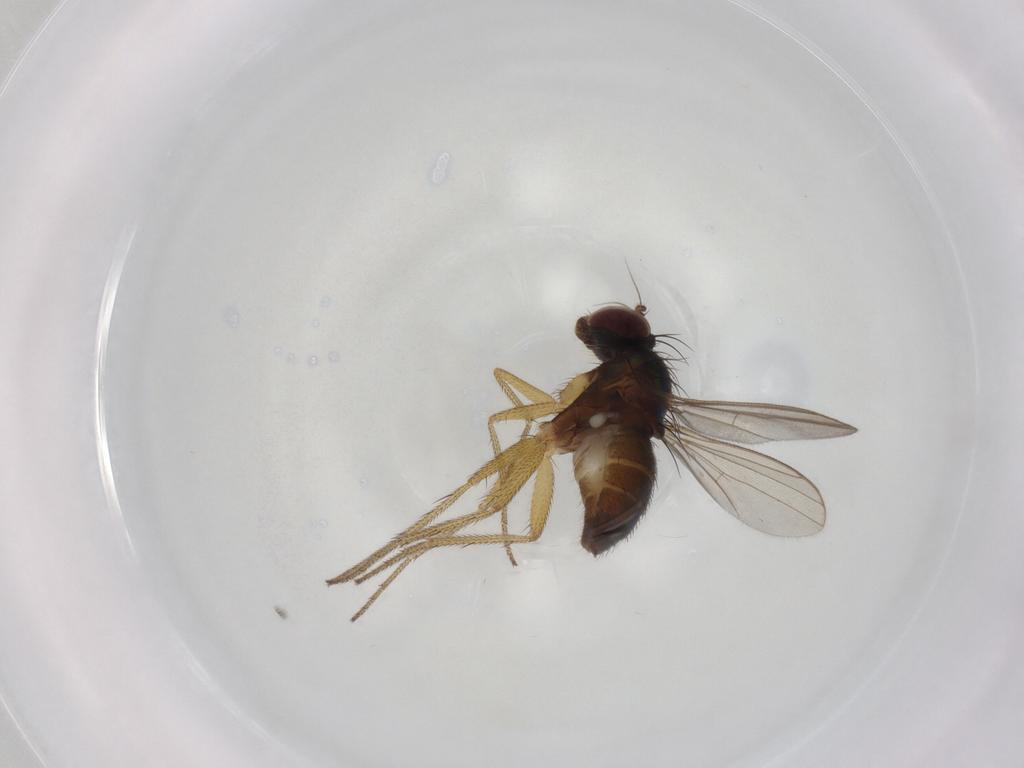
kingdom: Animalia
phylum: Arthropoda
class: Insecta
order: Diptera
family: Dolichopodidae
